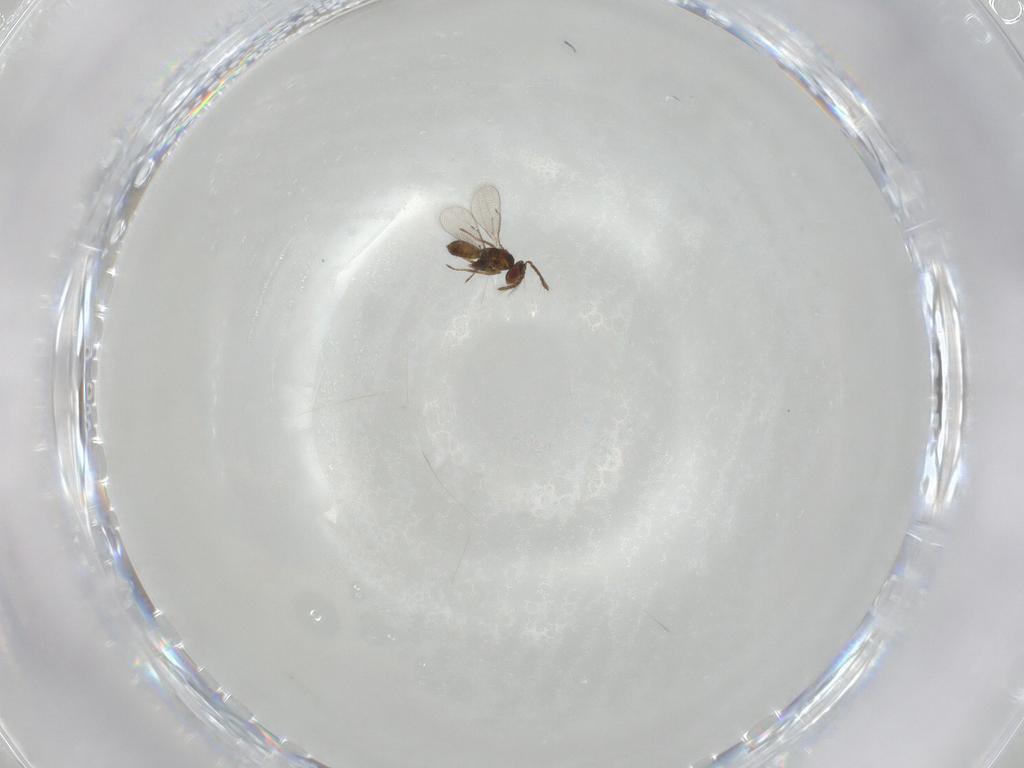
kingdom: Animalia
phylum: Arthropoda
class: Insecta
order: Hymenoptera
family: Eulophidae
